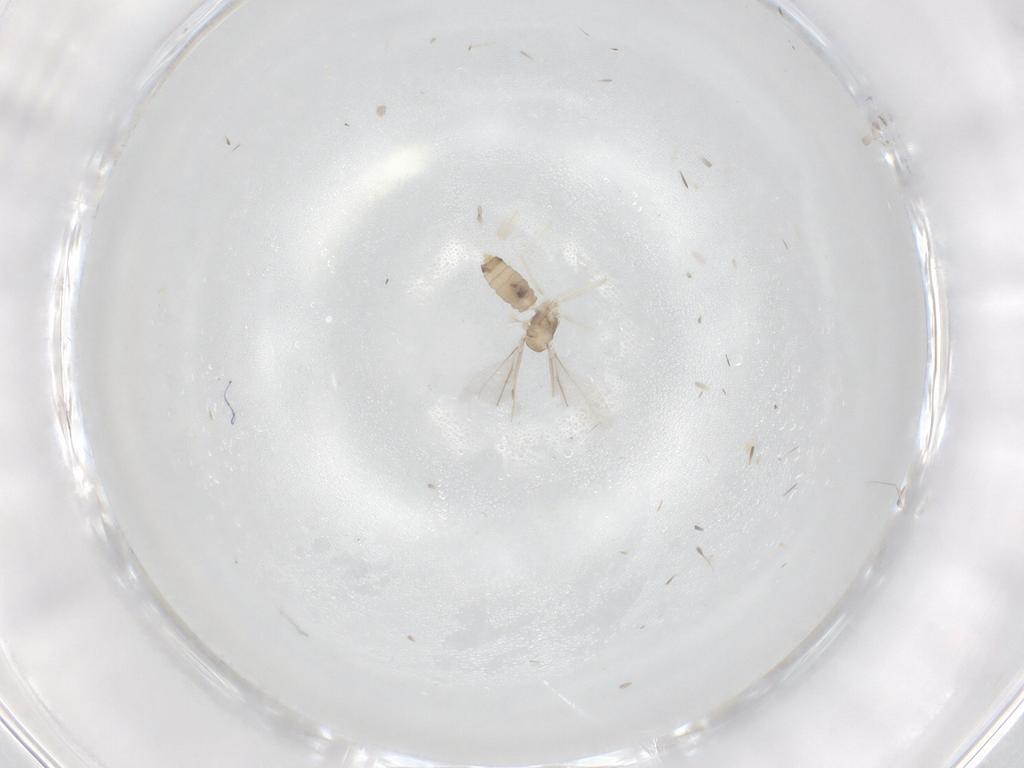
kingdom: Animalia
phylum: Arthropoda
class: Insecta
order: Diptera
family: Cecidomyiidae
